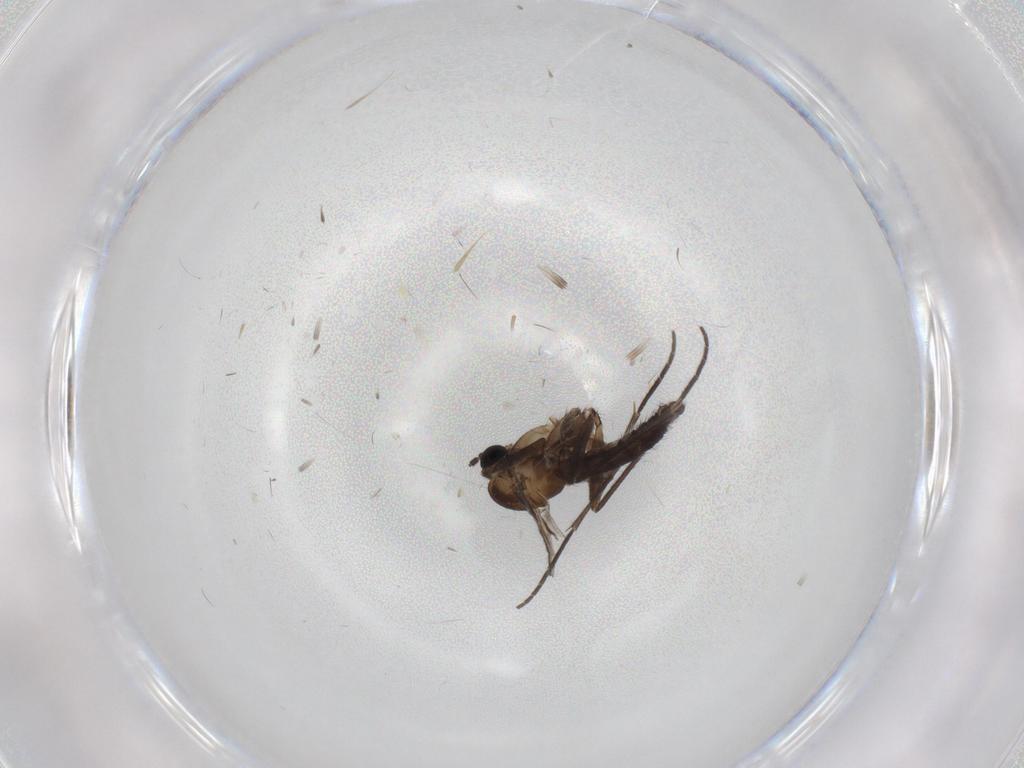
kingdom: Animalia
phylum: Arthropoda
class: Insecta
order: Diptera
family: Sciaridae
